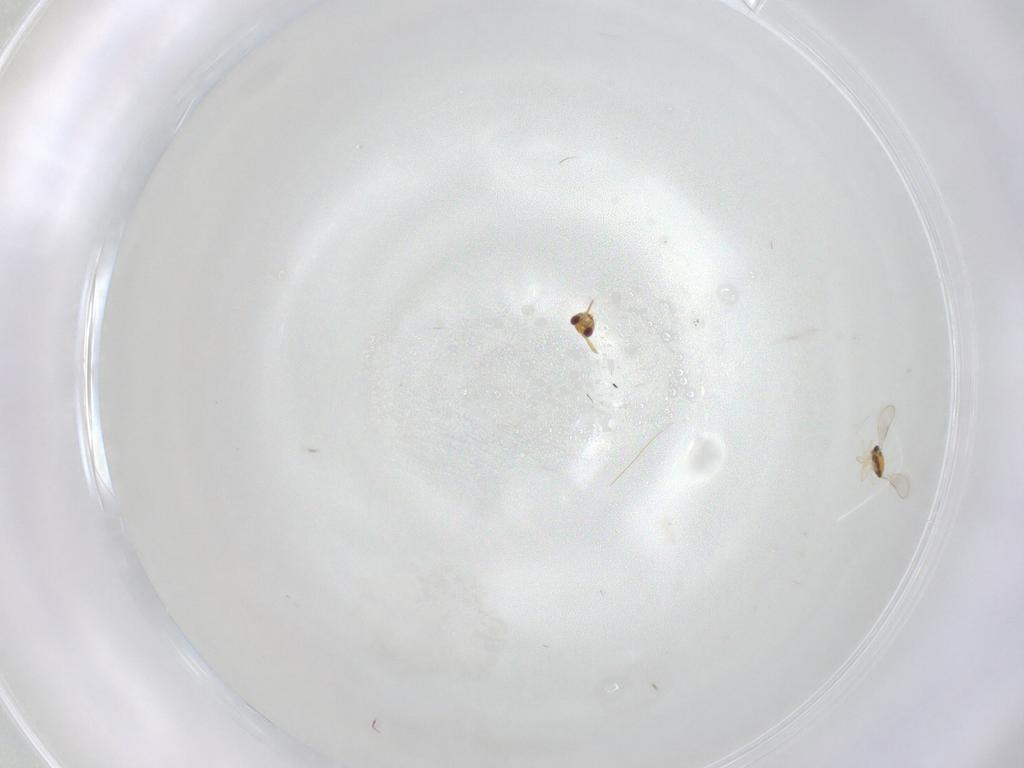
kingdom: Animalia
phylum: Arthropoda
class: Insecta
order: Hymenoptera
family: Aphelinidae
